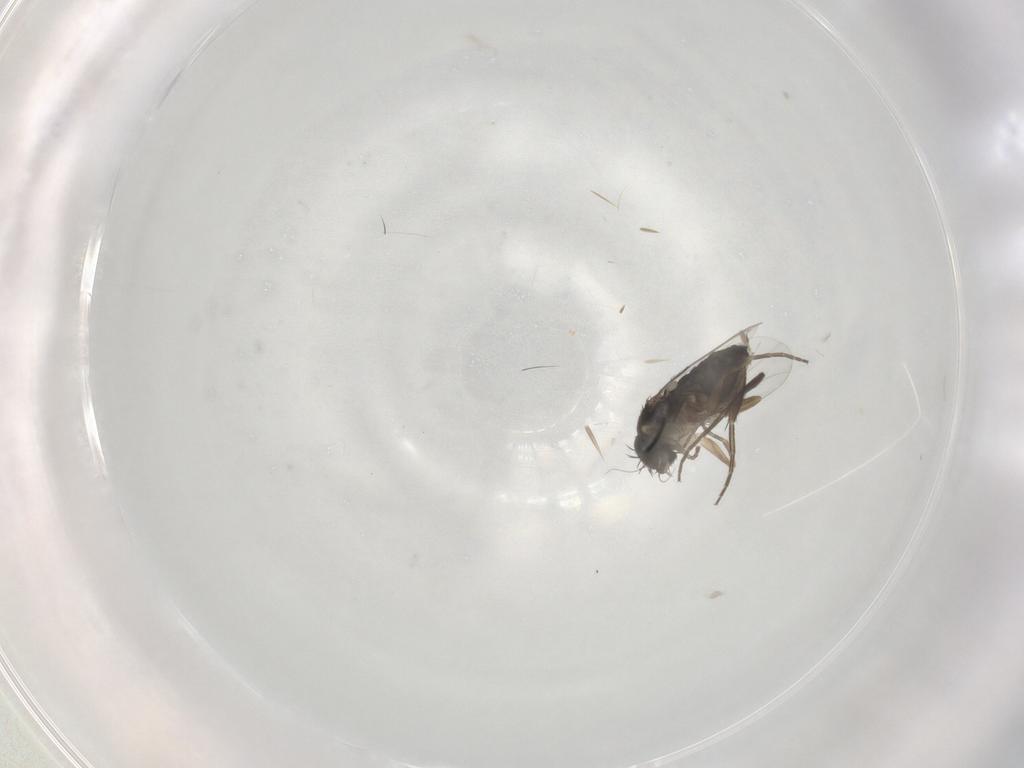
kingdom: Animalia
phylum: Arthropoda
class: Insecta
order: Diptera
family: Phoridae
